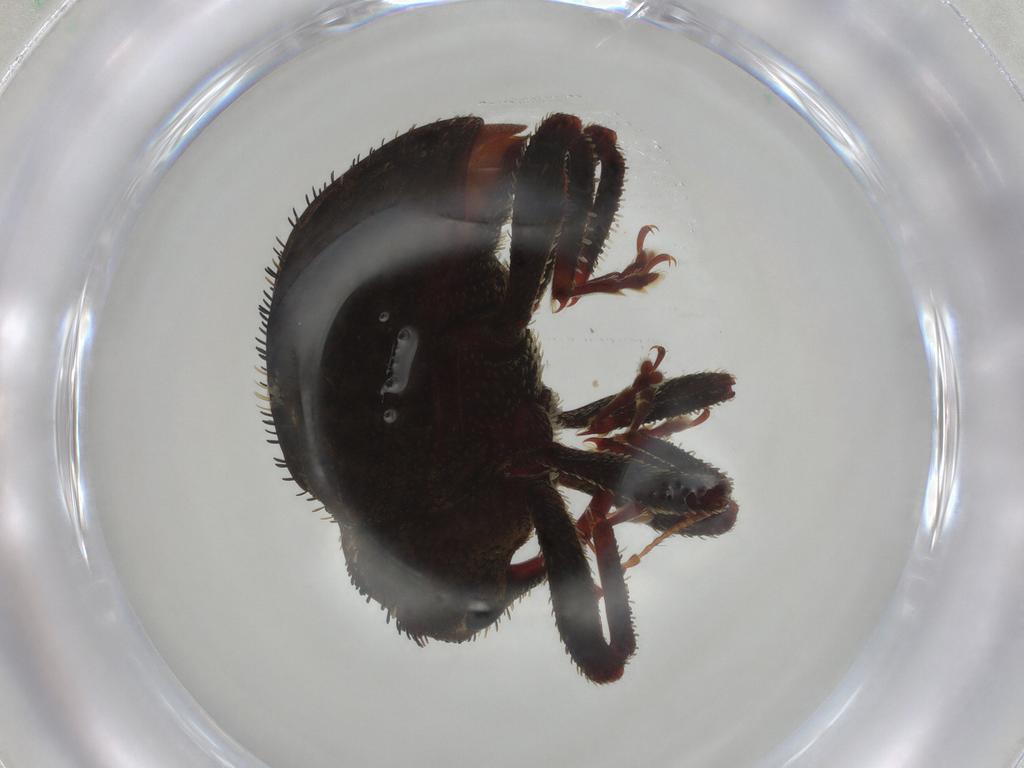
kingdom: Animalia
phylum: Arthropoda
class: Insecta
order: Coleoptera
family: Curculionidae
